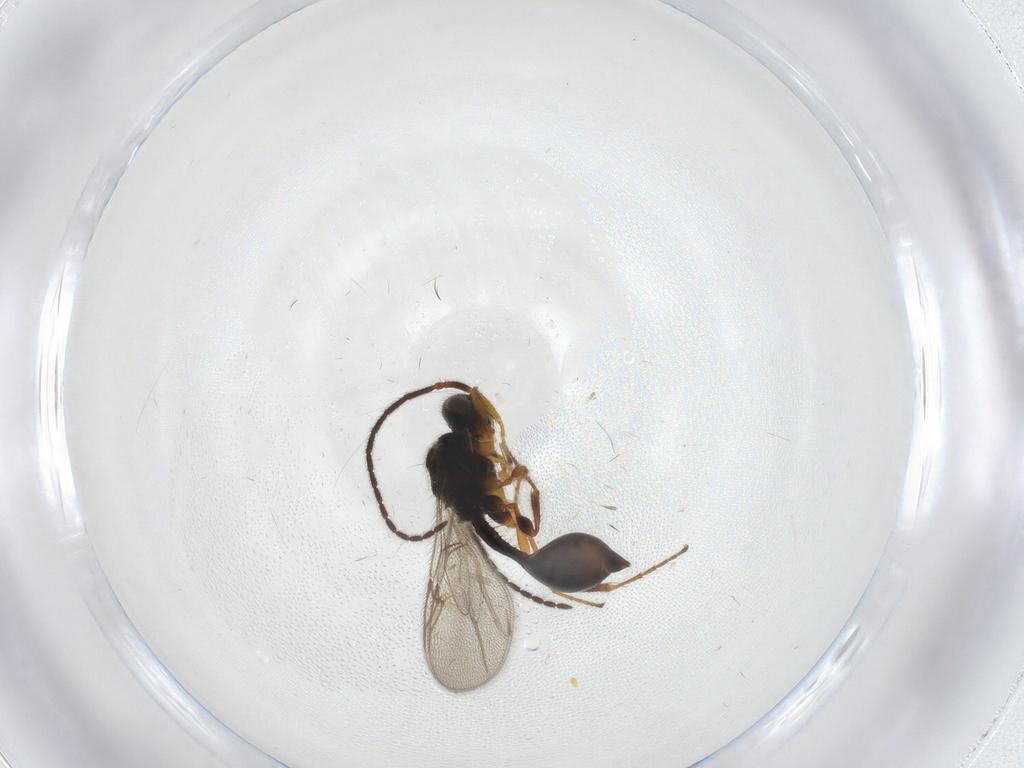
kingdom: Animalia
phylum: Arthropoda
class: Insecta
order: Hymenoptera
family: Diapriidae
